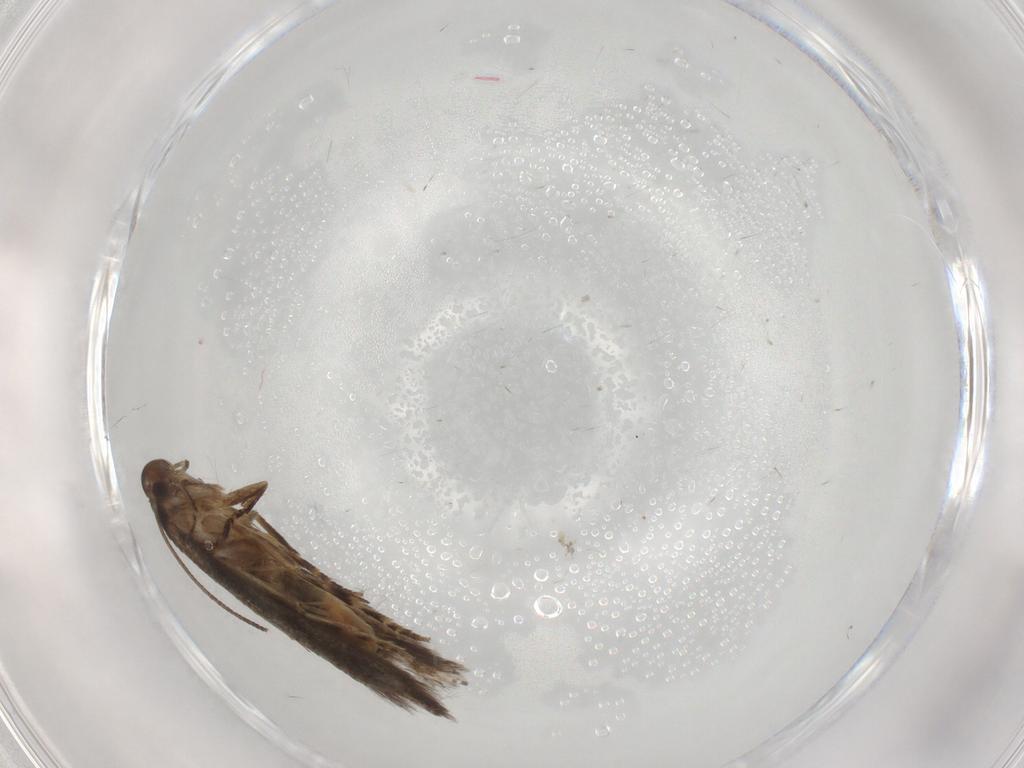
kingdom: Animalia
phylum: Arthropoda
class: Insecta
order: Lepidoptera
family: Elachistidae
